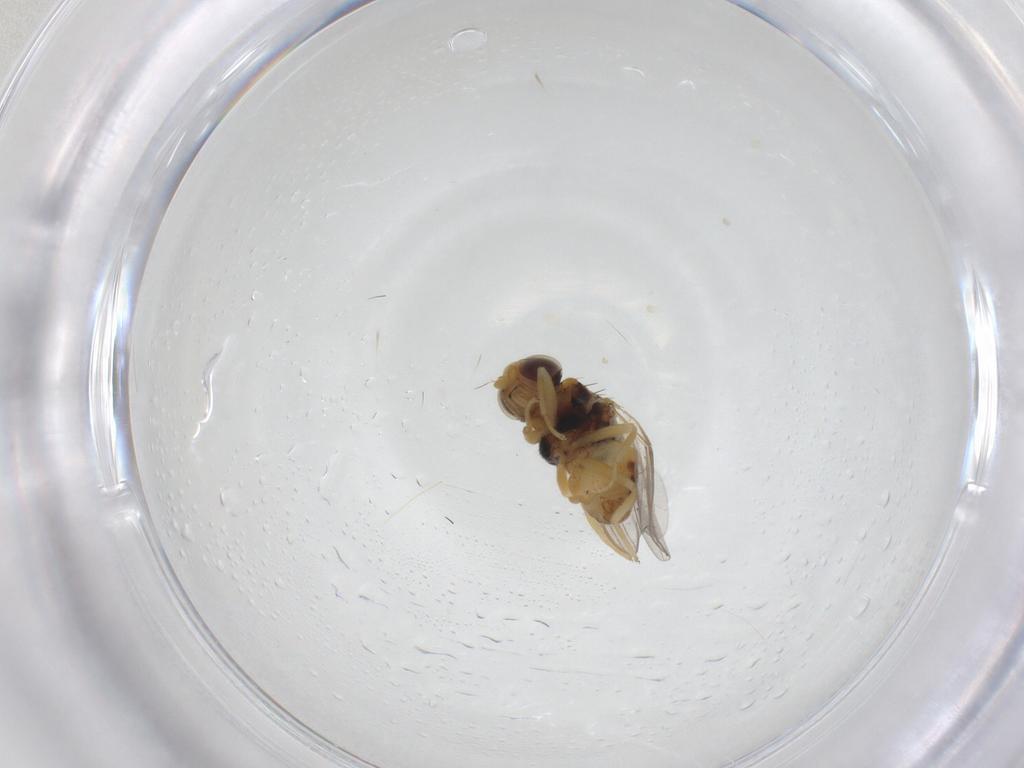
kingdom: Animalia
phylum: Arthropoda
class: Insecta
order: Diptera
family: Chloropidae
